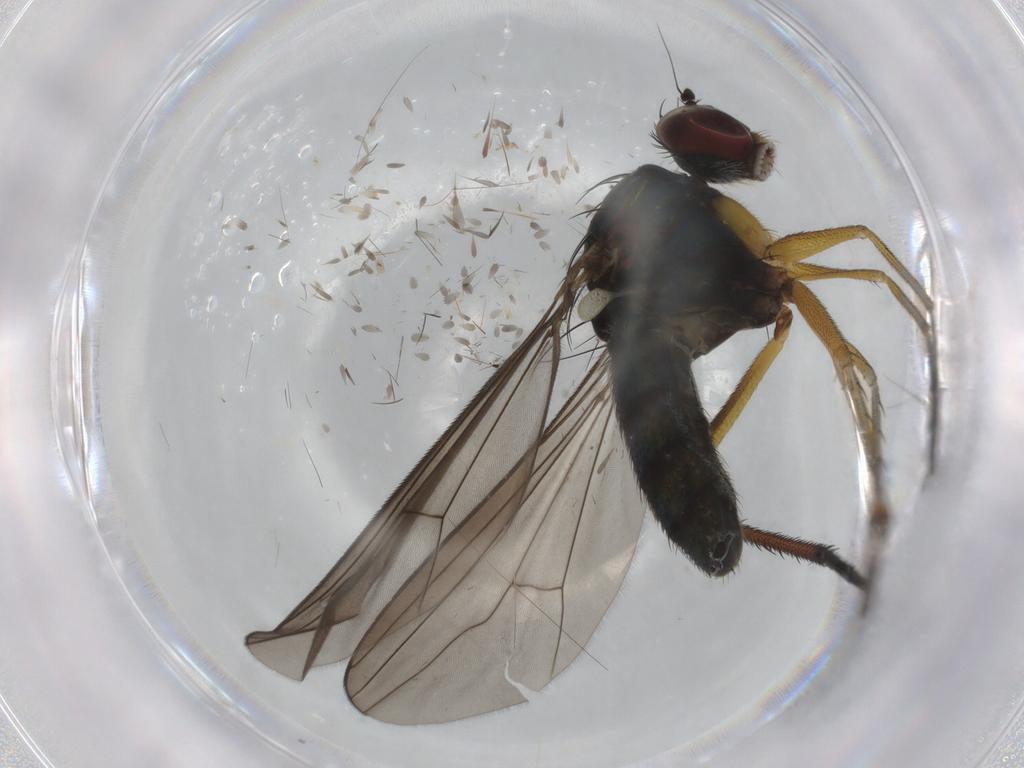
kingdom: Animalia
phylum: Arthropoda
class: Insecta
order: Diptera
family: Dolichopodidae
